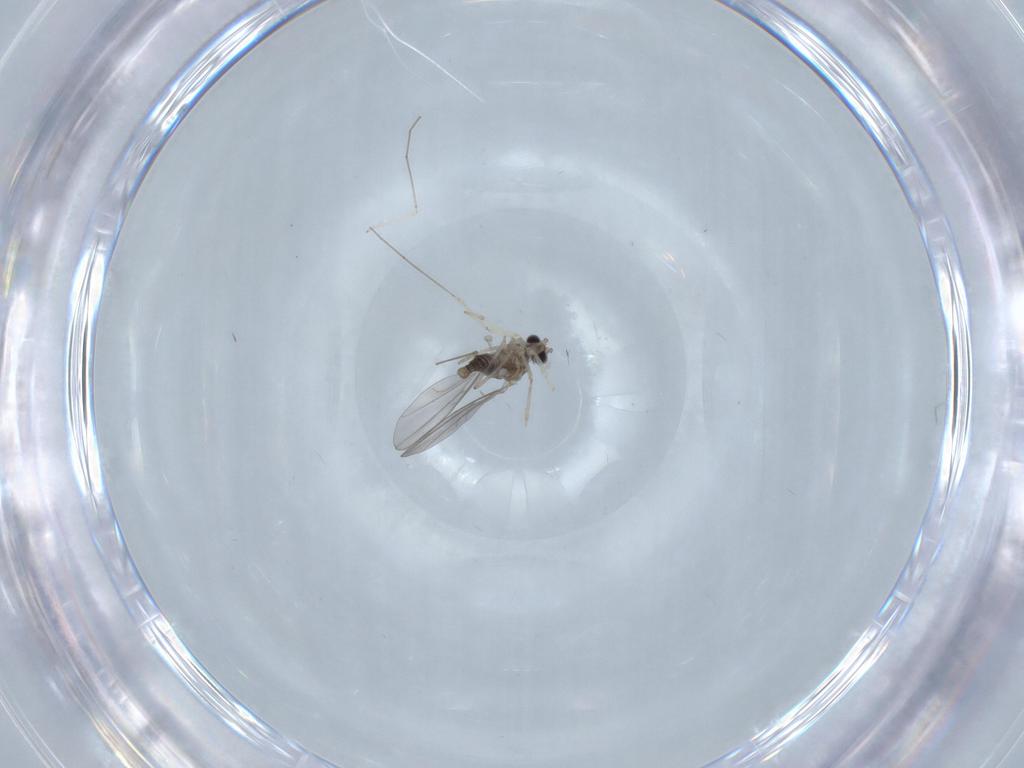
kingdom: Animalia
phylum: Arthropoda
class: Insecta
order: Diptera
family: Cecidomyiidae
